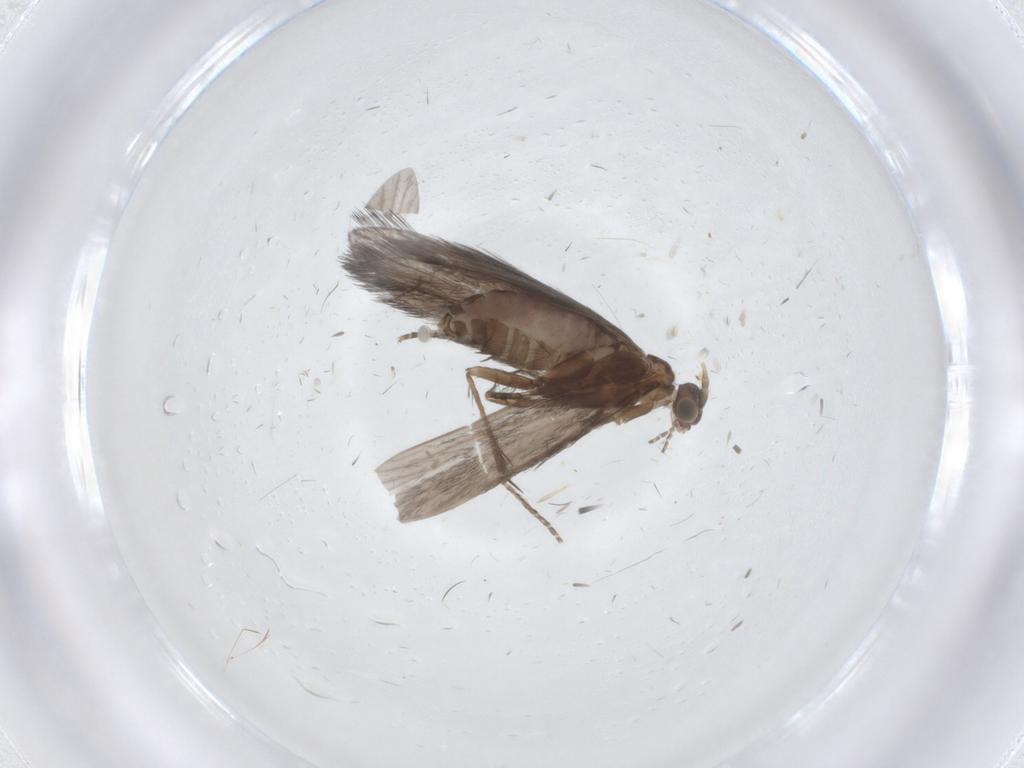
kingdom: Animalia
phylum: Arthropoda
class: Insecta
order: Trichoptera
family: Glossosomatidae
